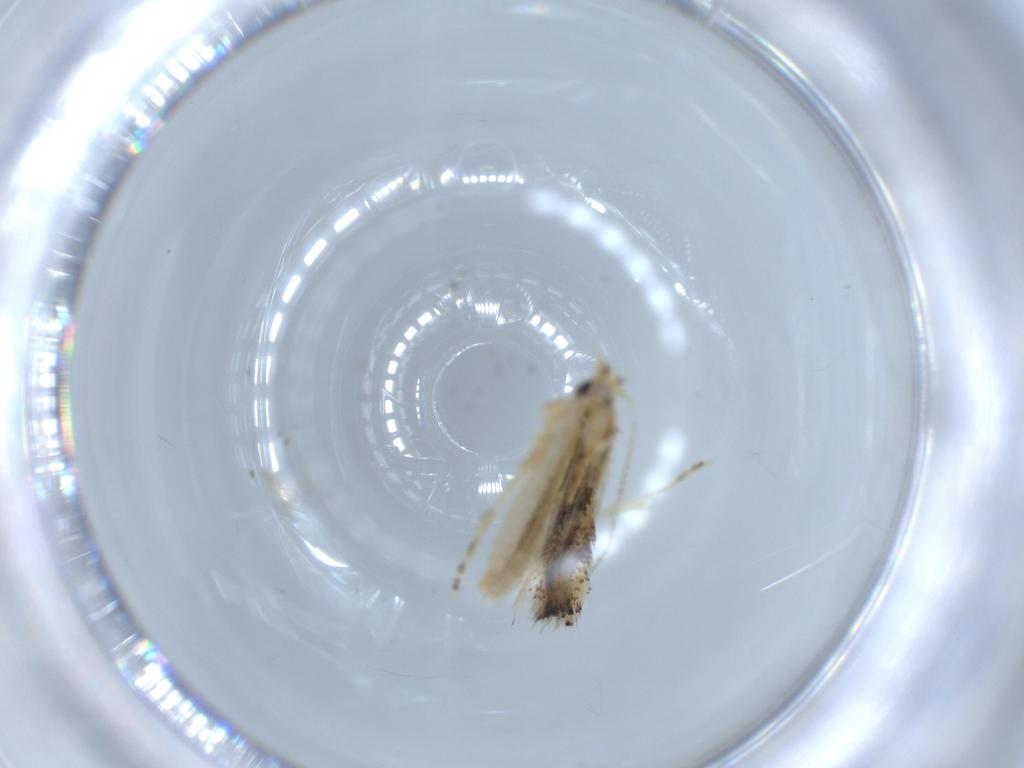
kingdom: Animalia
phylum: Arthropoda
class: Insecta
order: Lepidoptera
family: Bucculatricidae
